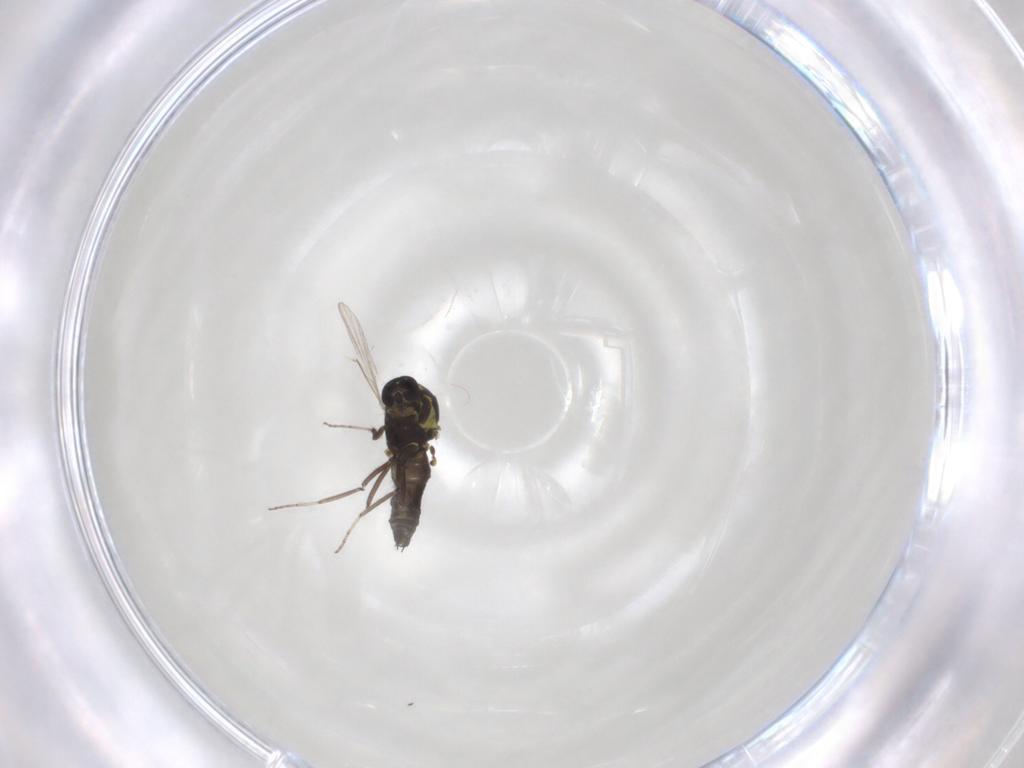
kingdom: Animalia
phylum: Arthropoda
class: Insecta
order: Diptera
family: Ceratopogonidae
